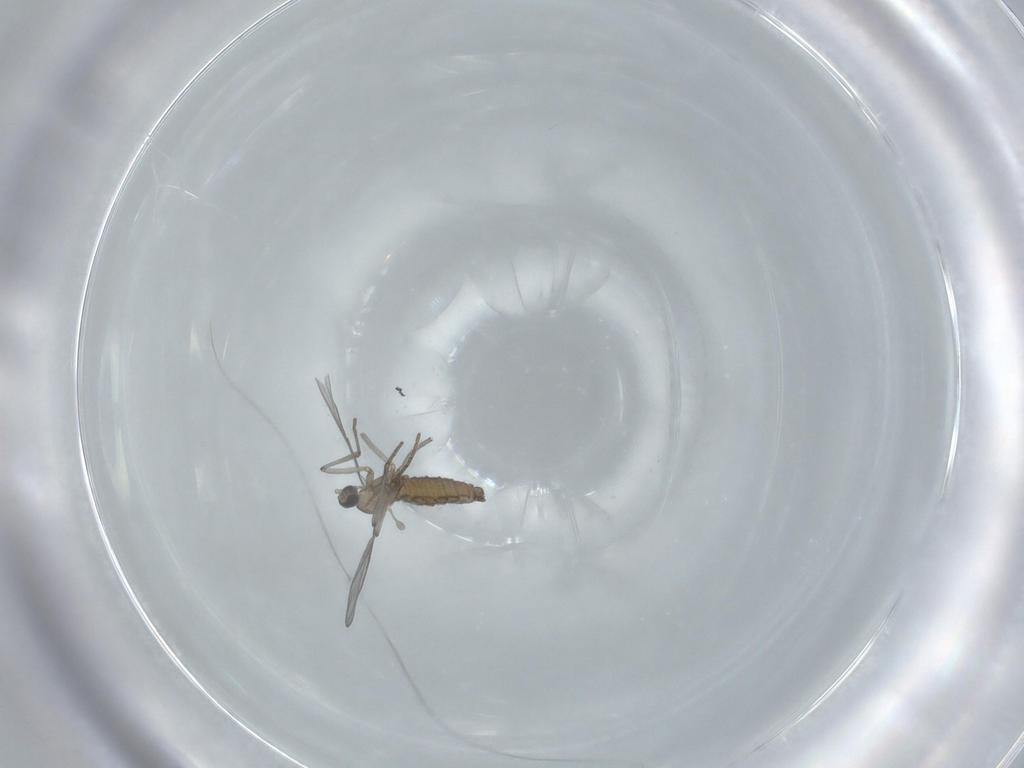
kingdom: Animalia
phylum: Arthropoda
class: Insecta
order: Diptera
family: Cecidomyiidae
